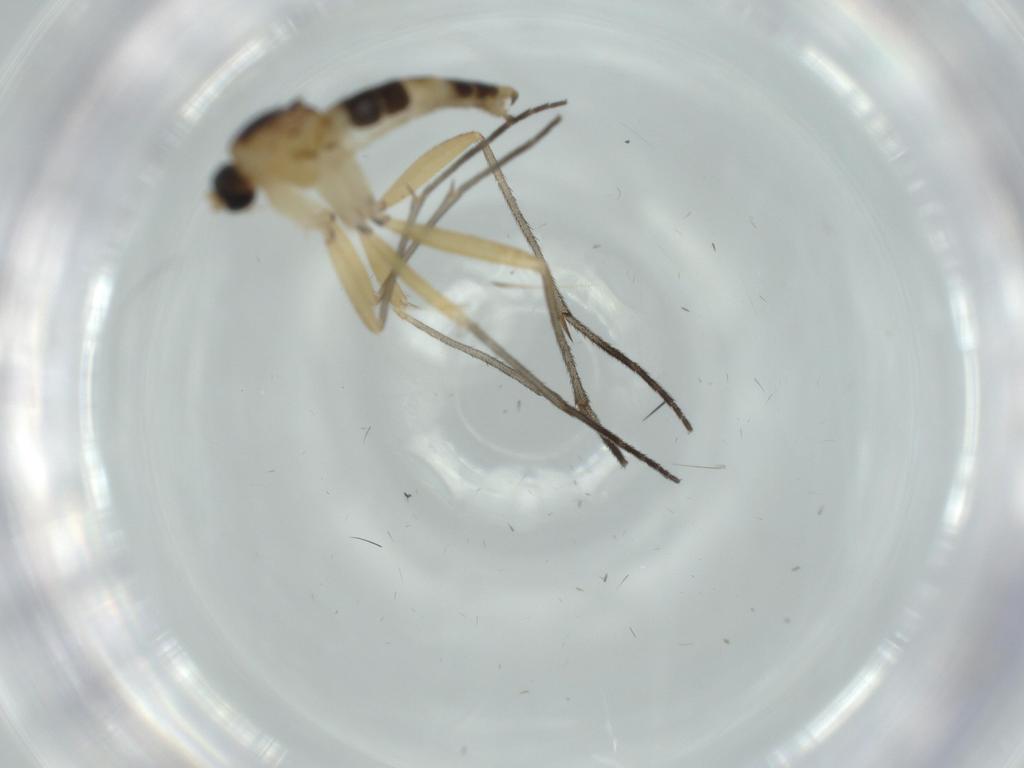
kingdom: Animalia
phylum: Arthropoda
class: Insecta
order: Diptera
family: Sciaridae
